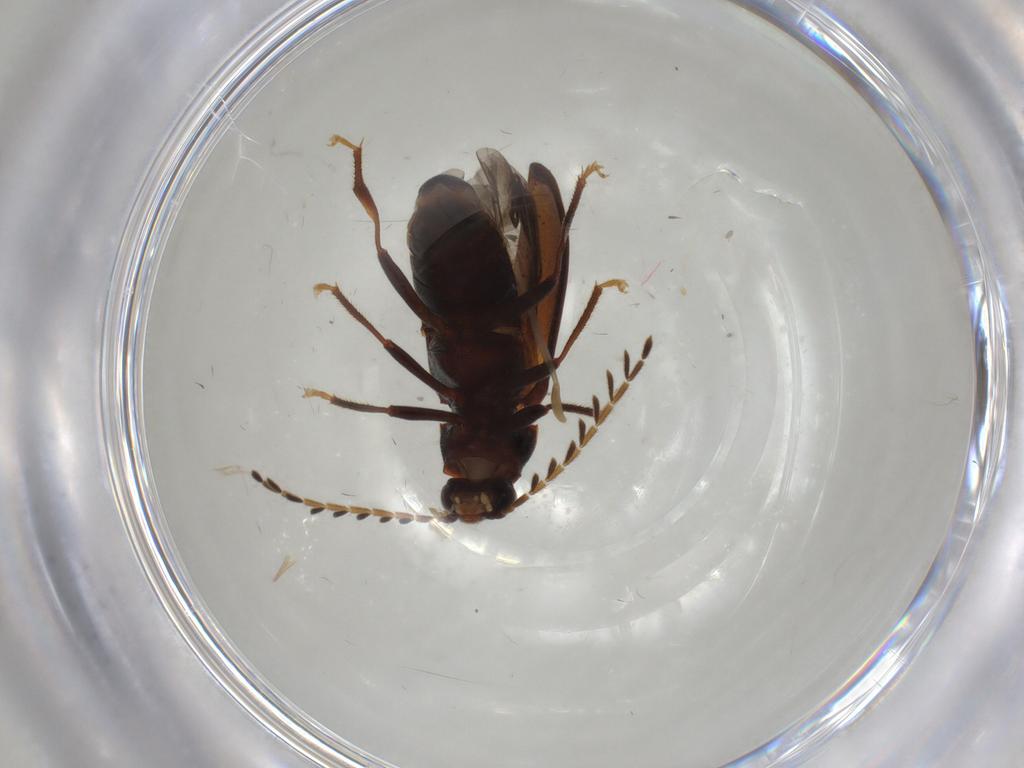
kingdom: Animalia
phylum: Arthropoda
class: Insecta
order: Coleoptera
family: Ptilodactylidae
